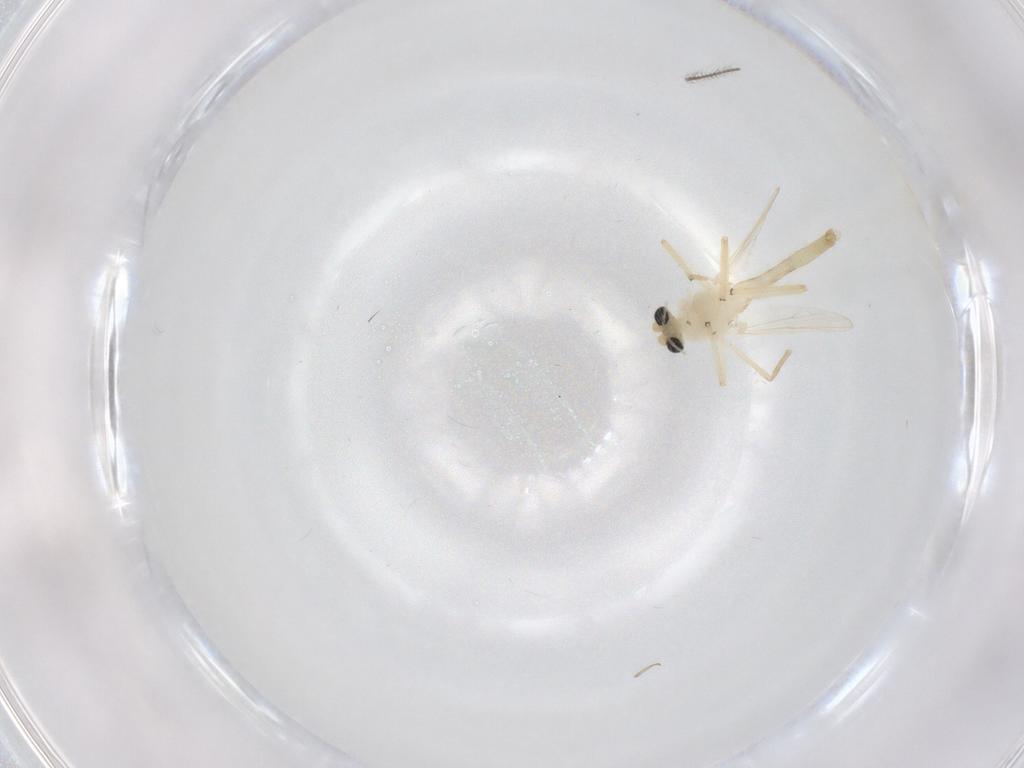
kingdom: Animalia
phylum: Arthropoda
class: Insecta
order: Diptera
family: Chironomidae
